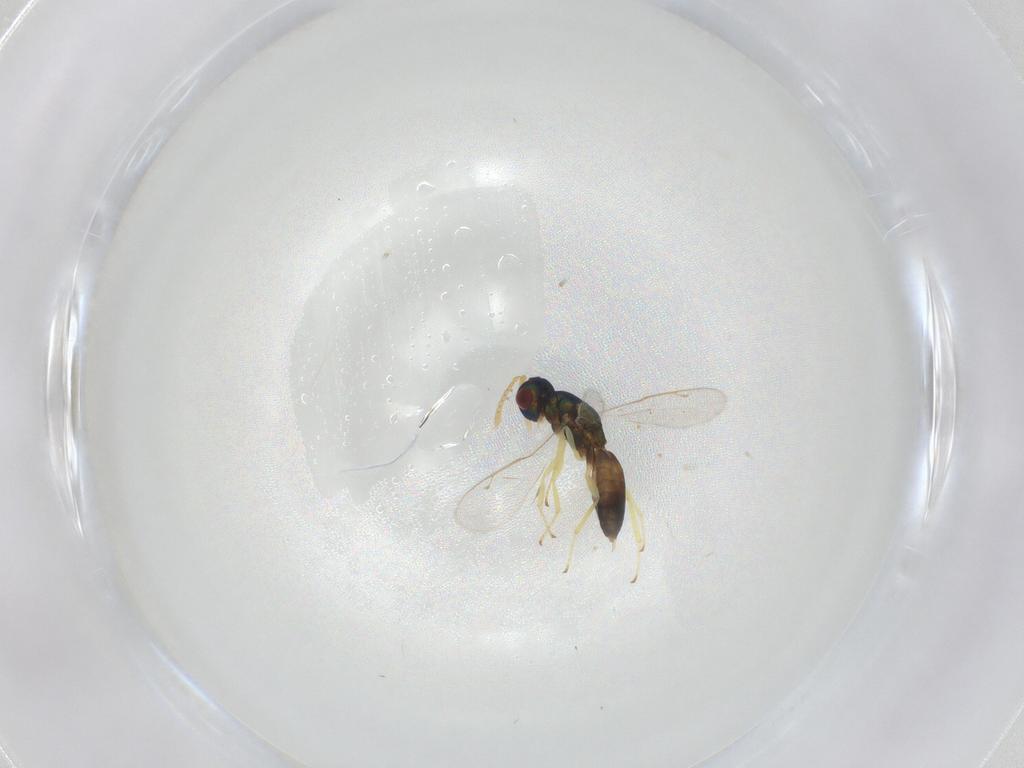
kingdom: Animalia
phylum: Arthropoda
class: Insecta
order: Hymenoptera
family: Pteromalidae
